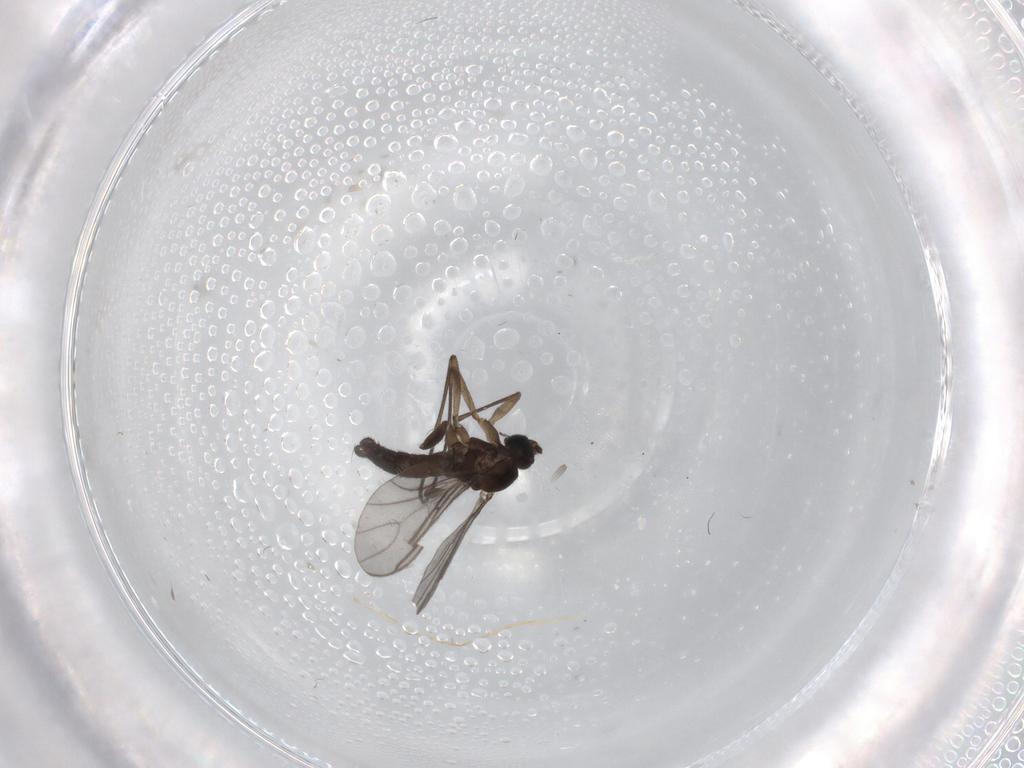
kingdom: Animalia
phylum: Arthropoda
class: Insecta
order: Diptera
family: Sciaridae
